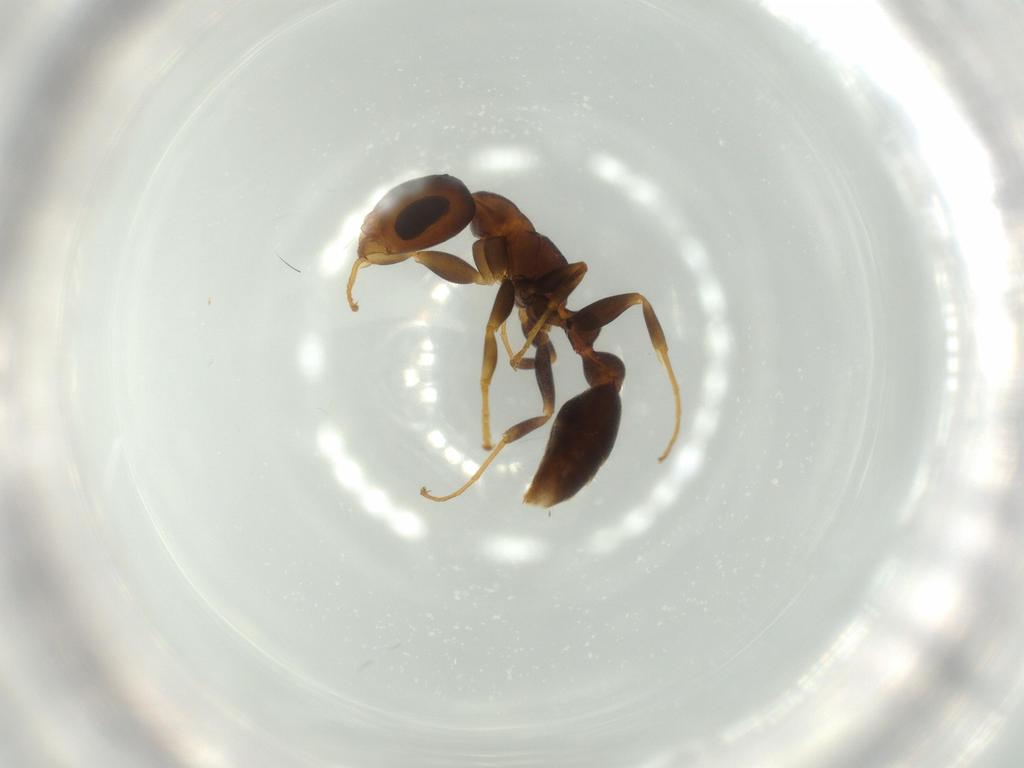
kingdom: Animalia
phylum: Arthropoda
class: Insecta
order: Hymenoptera
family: Formicidae
